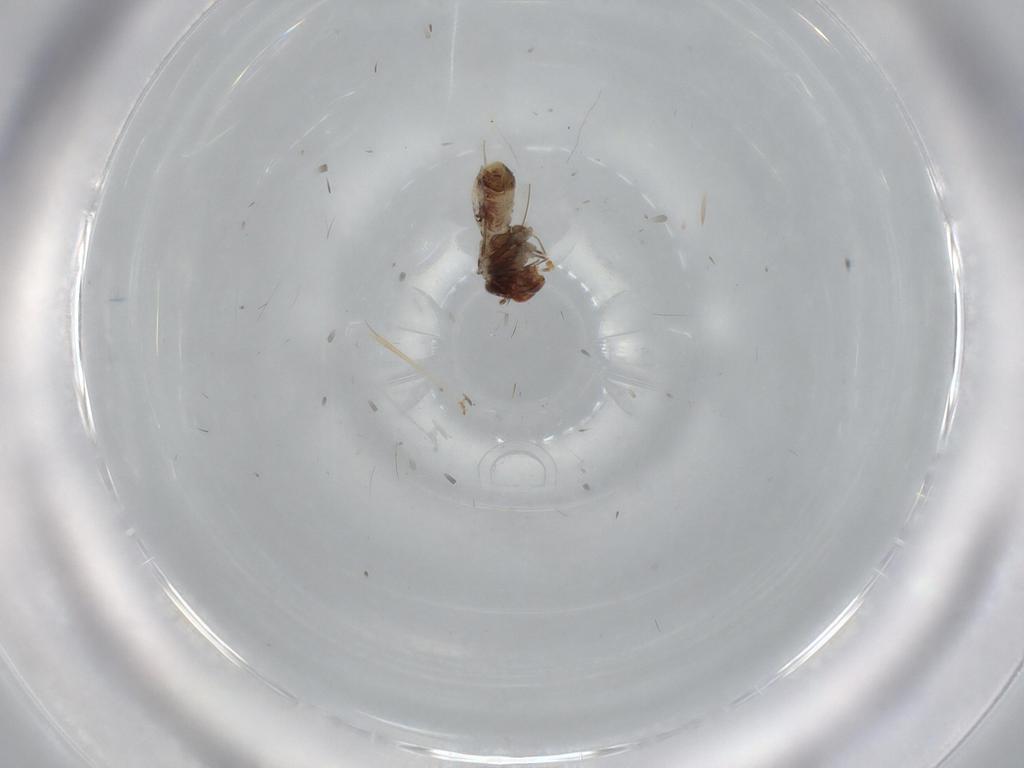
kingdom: Animalia
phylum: Arthropoda
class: Insecta
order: Psocodea
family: Musapsocidae
